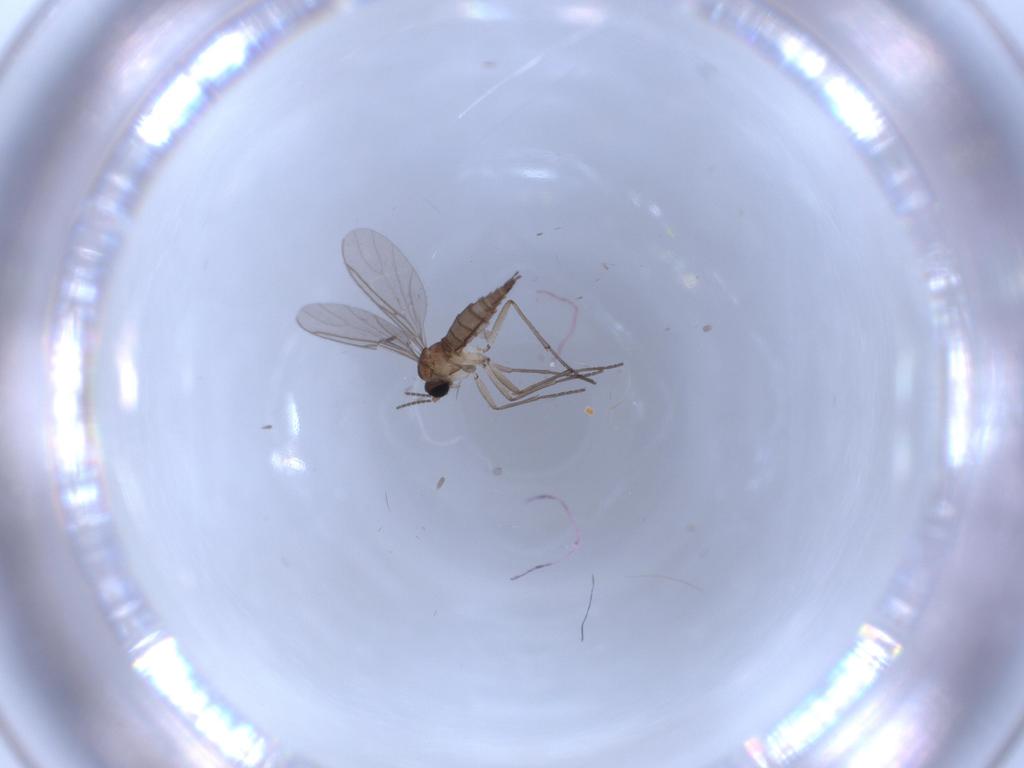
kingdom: Animalia
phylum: Arthropoda
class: Insecta
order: Diptera
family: Sciaridae
